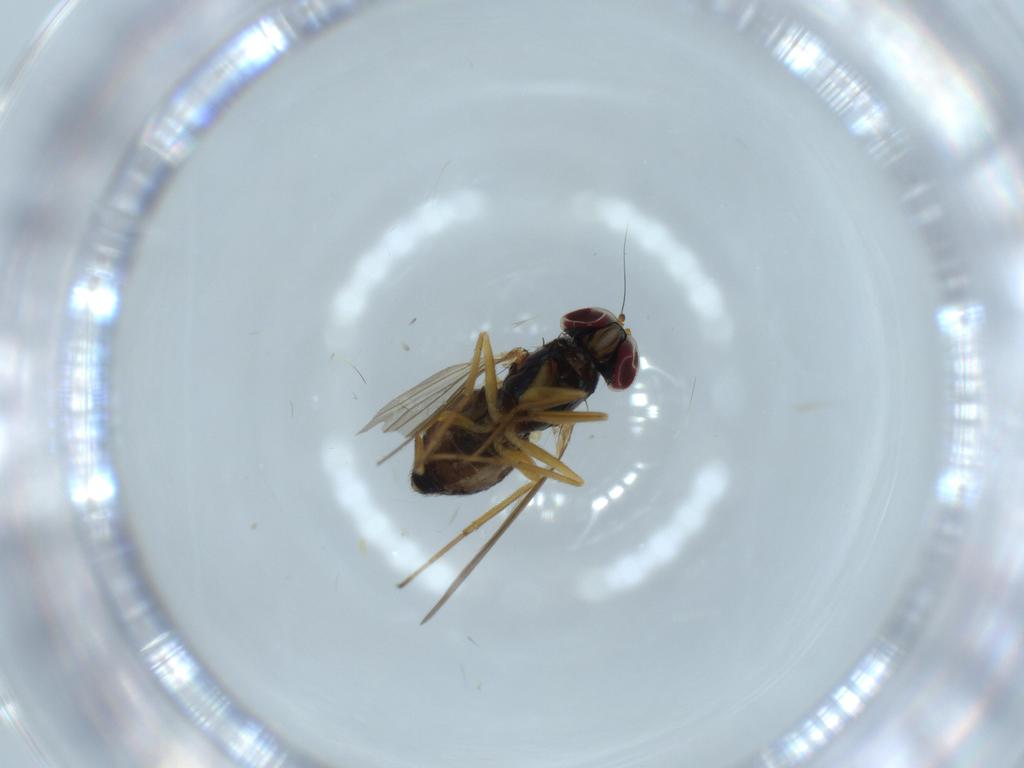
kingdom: Animalia
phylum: Arthropoda
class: Insecta
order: Diptera
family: Dolichopodidae
